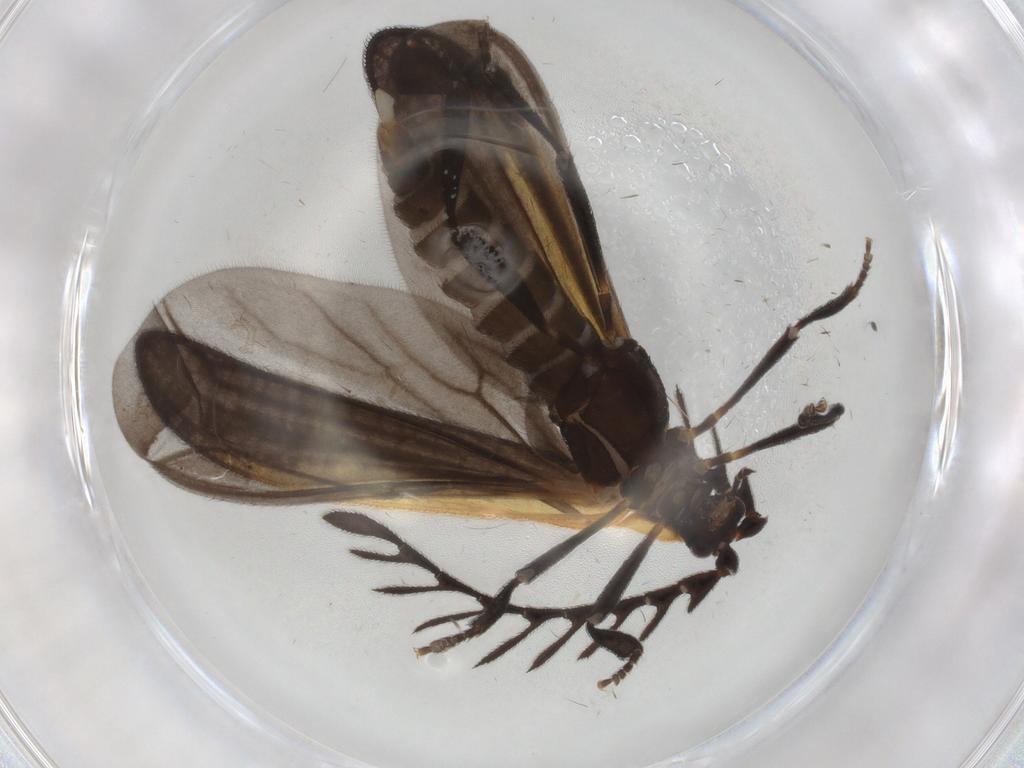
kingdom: Animalia
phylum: Arthropoda
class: Insecta
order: Coleoptera
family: Lycidae
